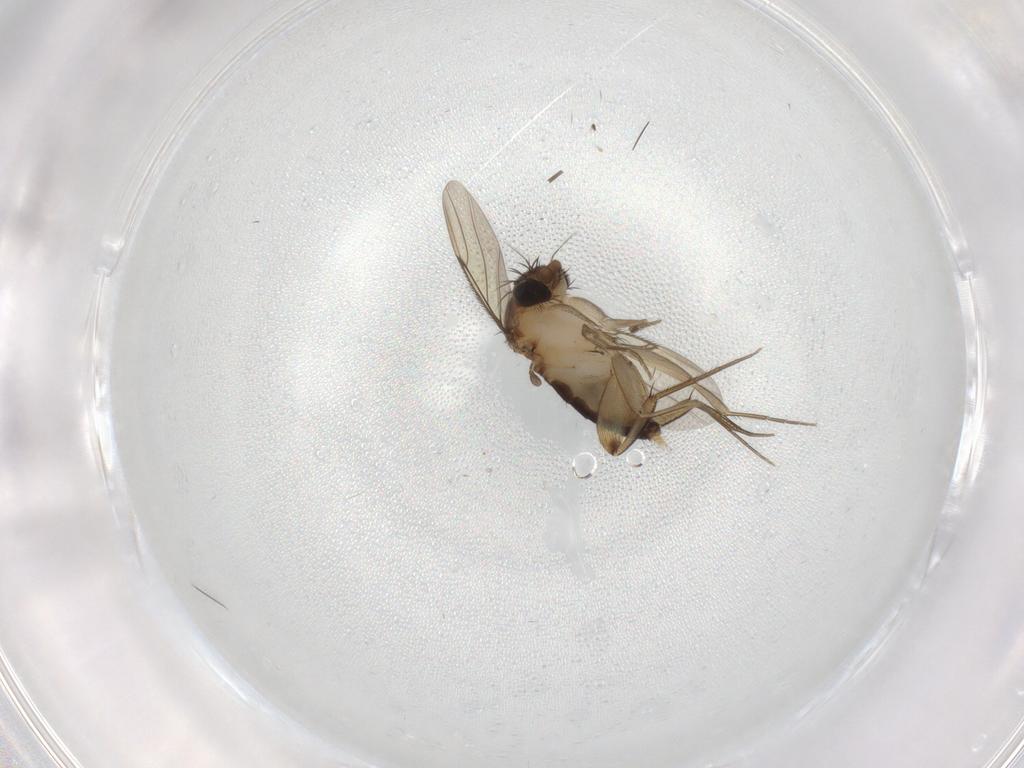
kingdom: Animalia
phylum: Arthropoda
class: Insecta
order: Diptera
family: Phoridae
